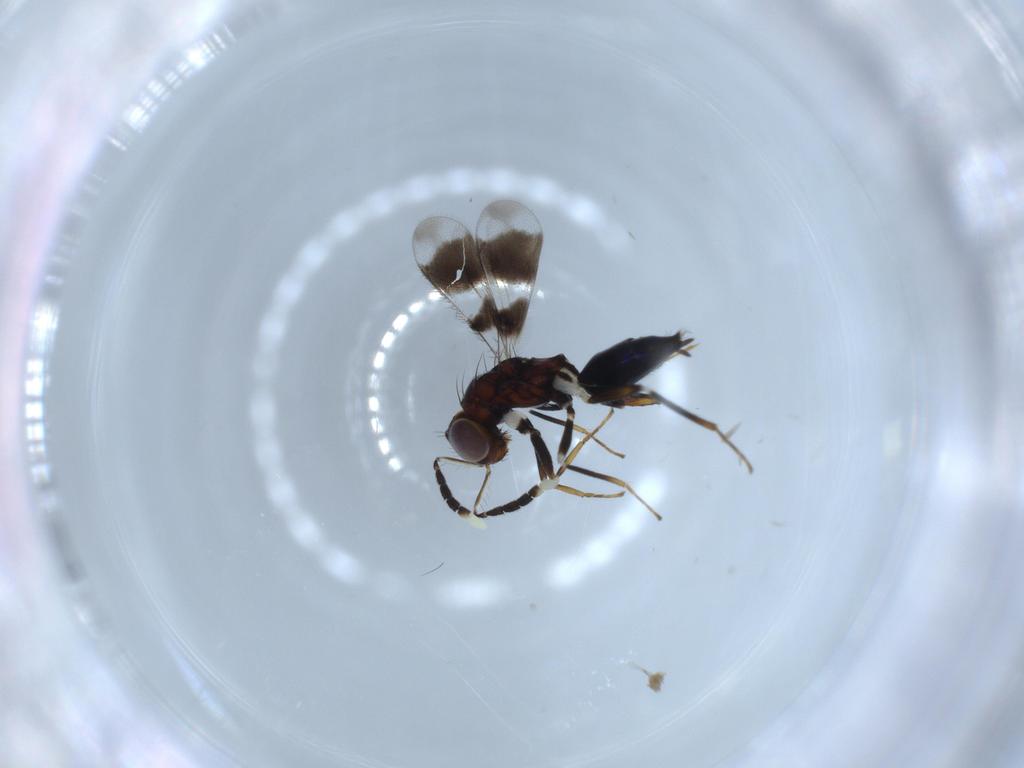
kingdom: Animalia
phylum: Arthropoda
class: Insecta
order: Hymenoptera
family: Eulophidae
